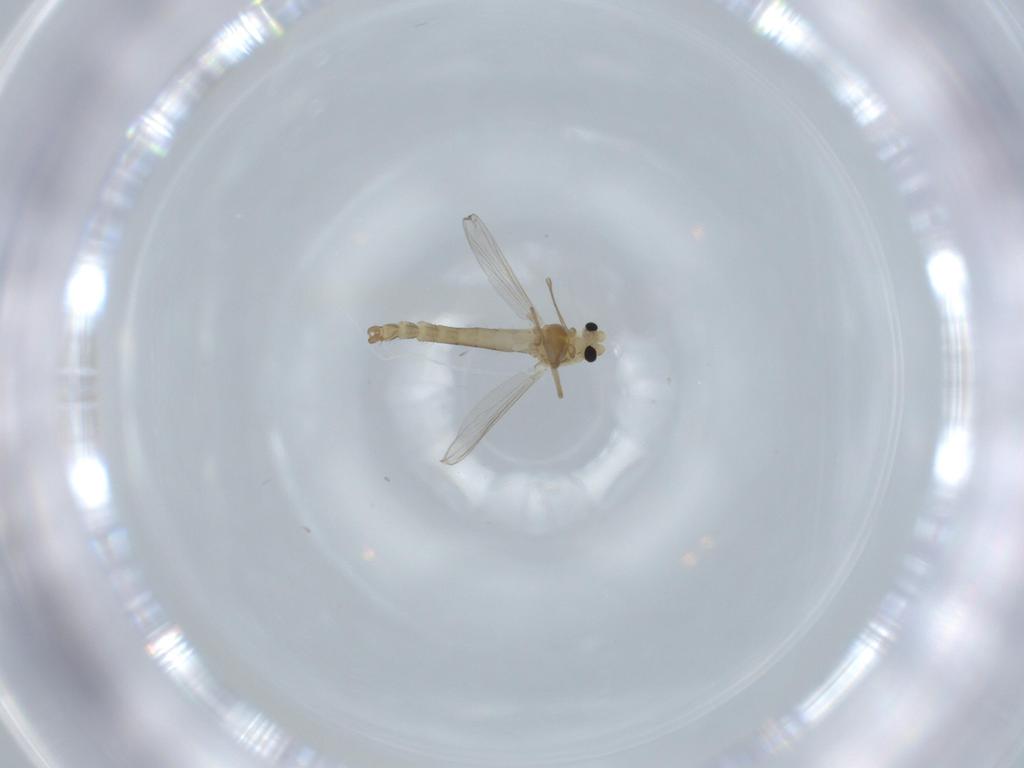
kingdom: Animalia
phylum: Arthropoda
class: Insecta
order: Diptera
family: Chironomidae
